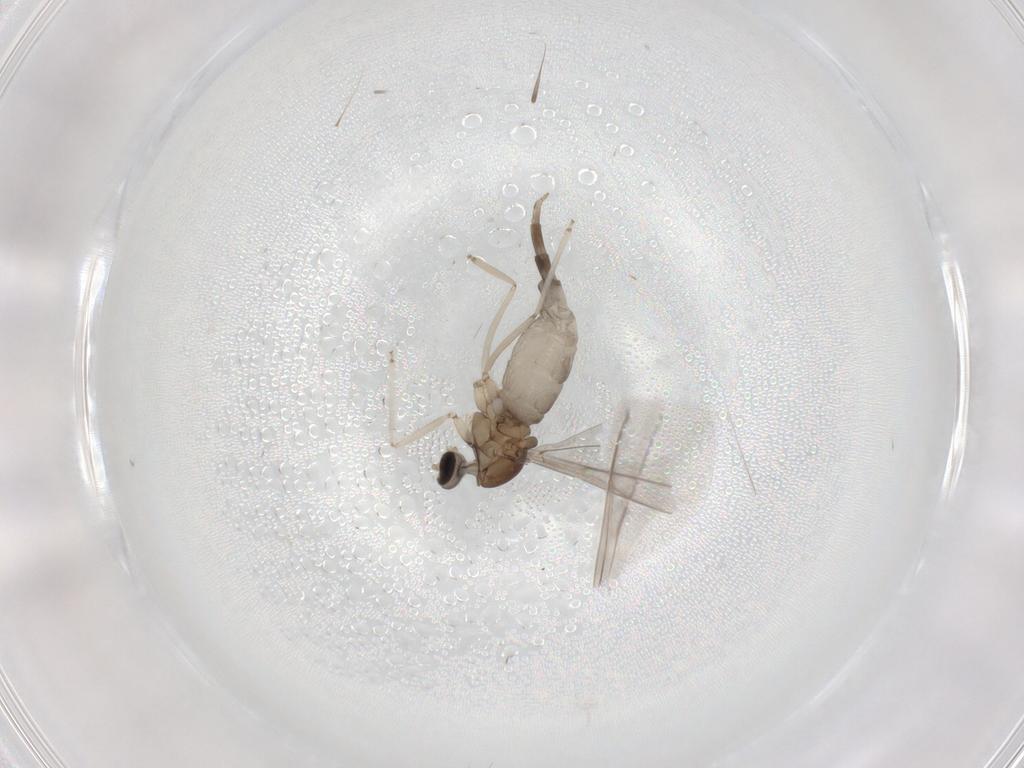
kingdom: Animalia
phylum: Arthropoda
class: Insecta
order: Diptera
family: Cecidomyiidae
